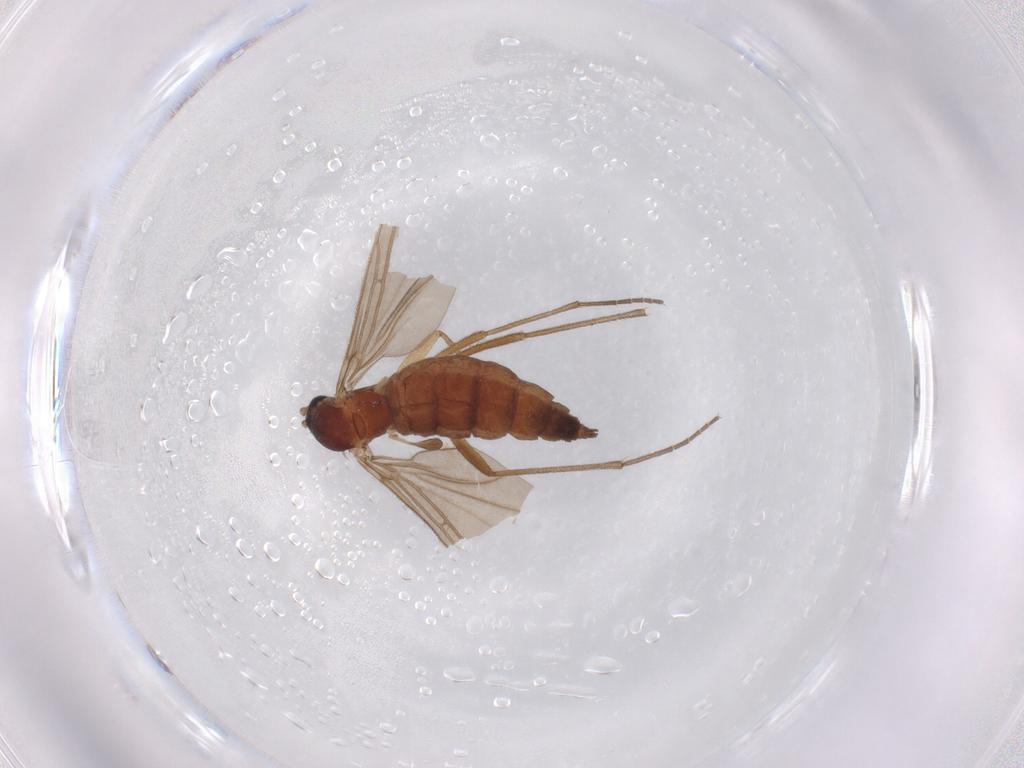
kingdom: Animalia
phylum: Arthropoda
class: Insecta
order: Diptera
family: Sciaridae
